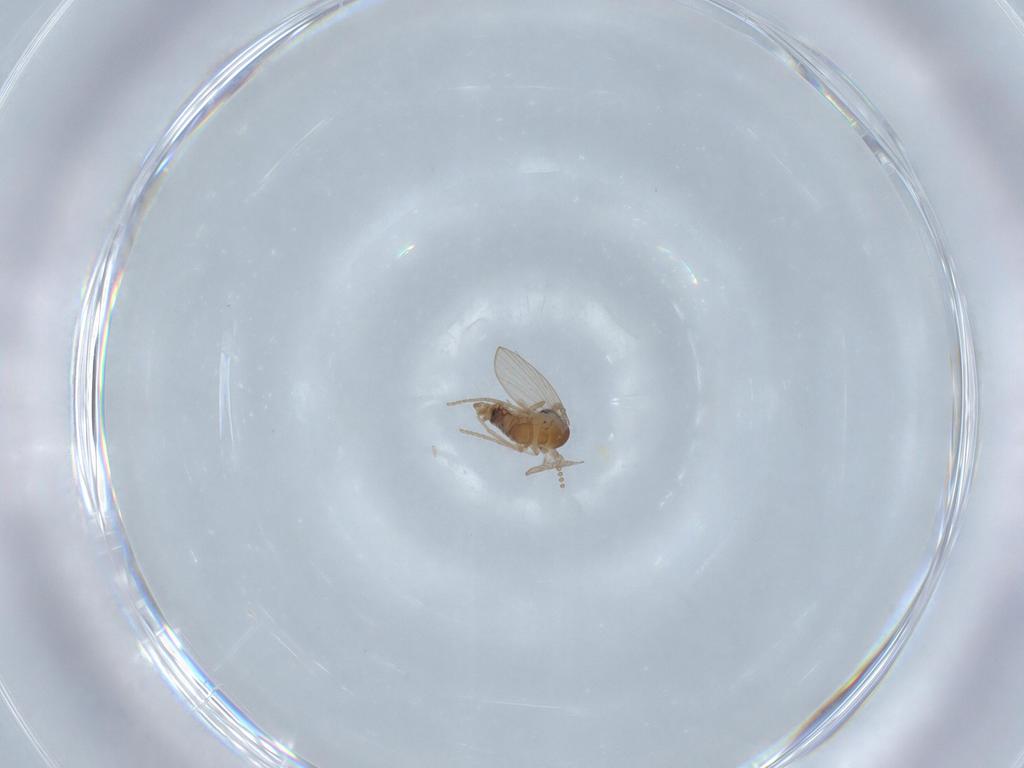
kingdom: Animalia
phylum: Arthropoda
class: Insecta
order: Diptera
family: Psychodidae
